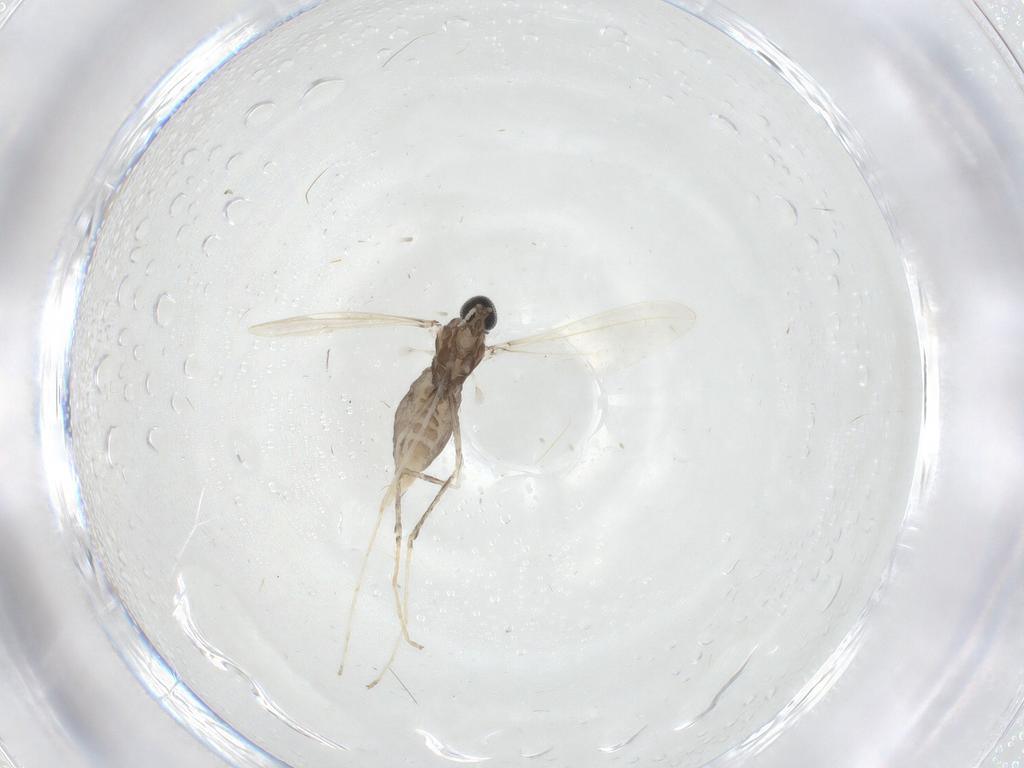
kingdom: Animalia
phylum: Arthropoda
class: Insecta
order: Diptera
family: Cecidomyiidae
